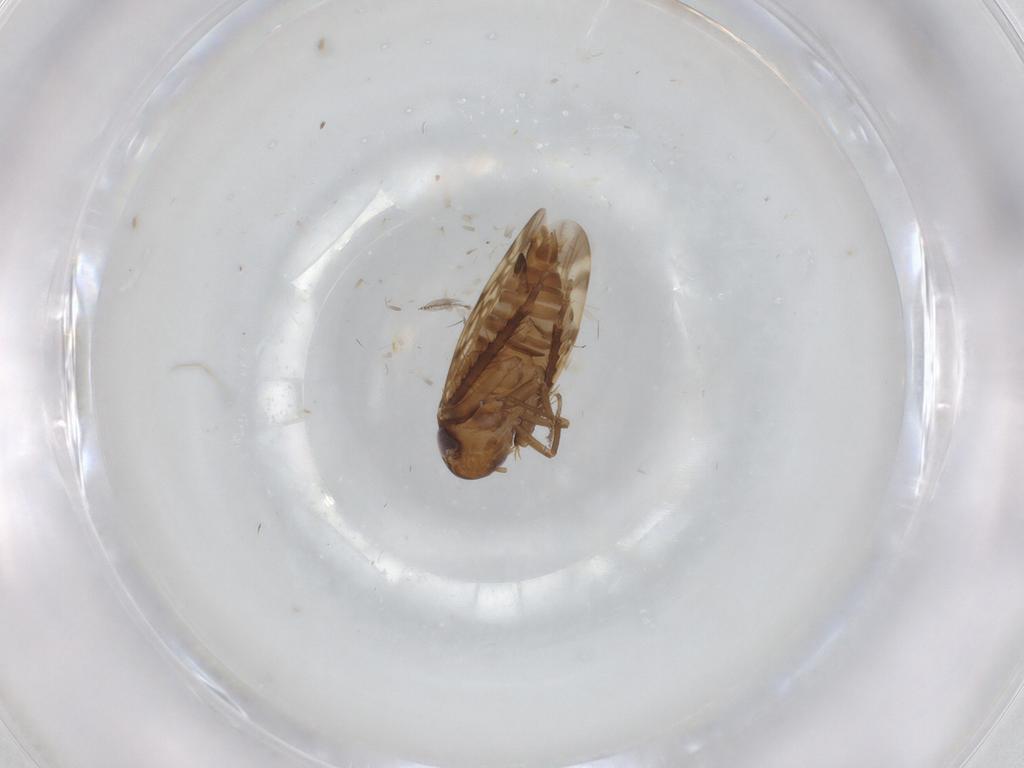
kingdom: Animalia
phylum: Arthropoda
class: Insecta
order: Hemiptera
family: Cicadellidae
